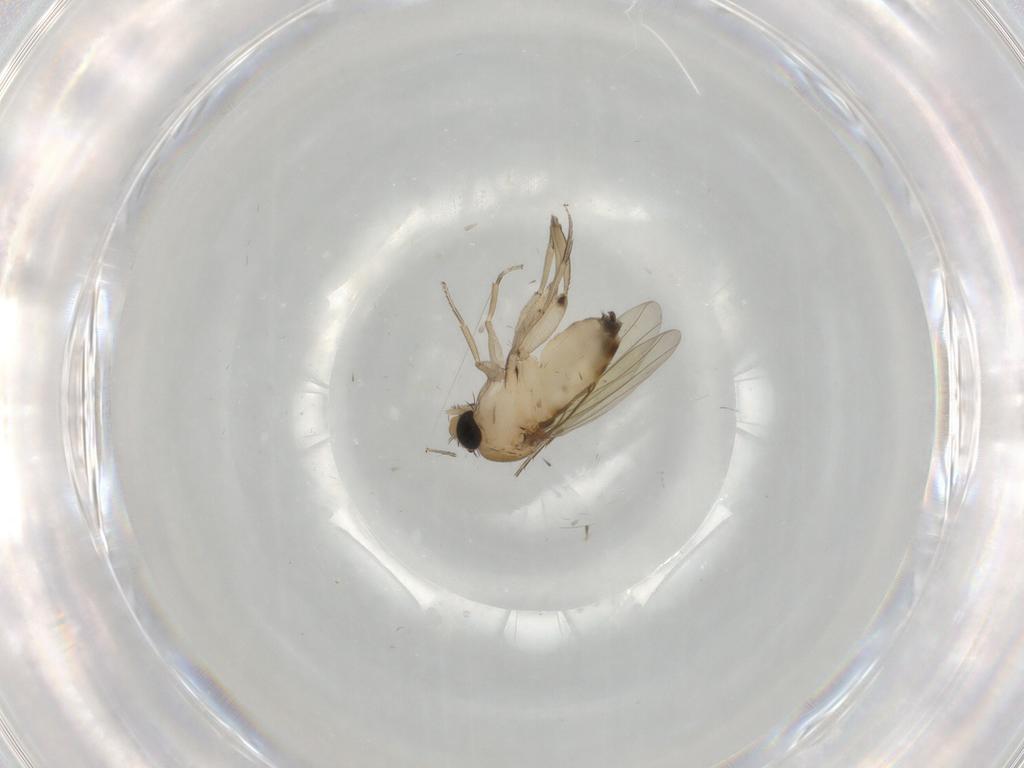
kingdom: Animalia
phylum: Arthropoda
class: Insecta
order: Diptera
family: Phoridae
